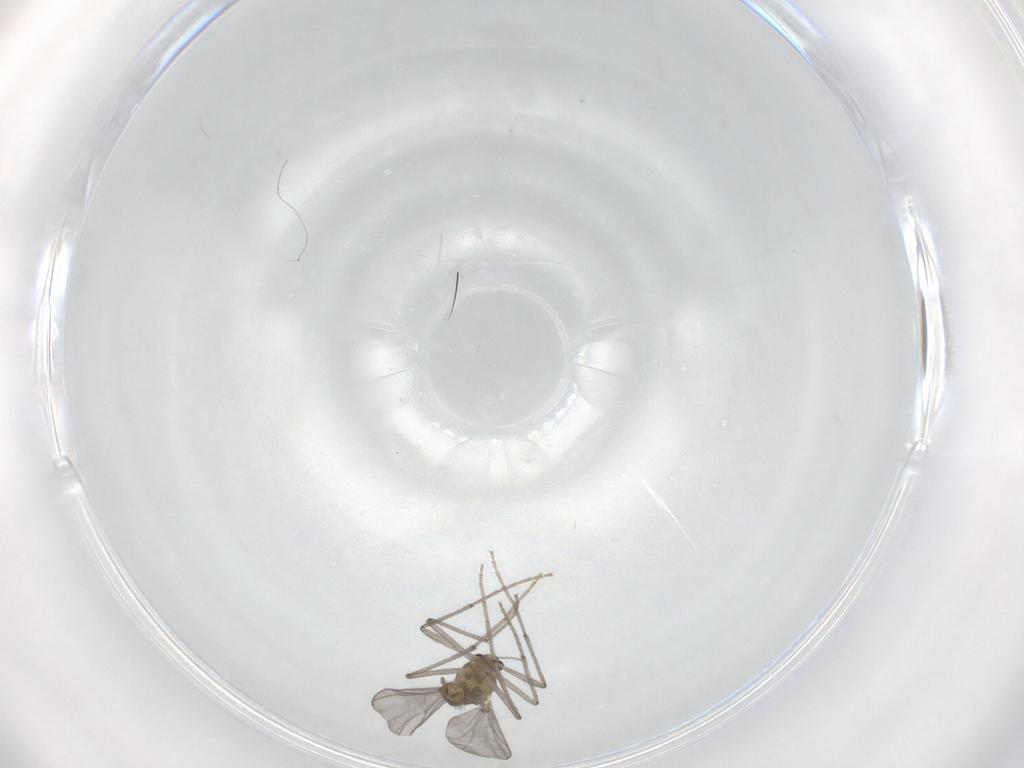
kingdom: Animalia
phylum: Arthropoda
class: Insecta
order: Diptera
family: Chironomidae
